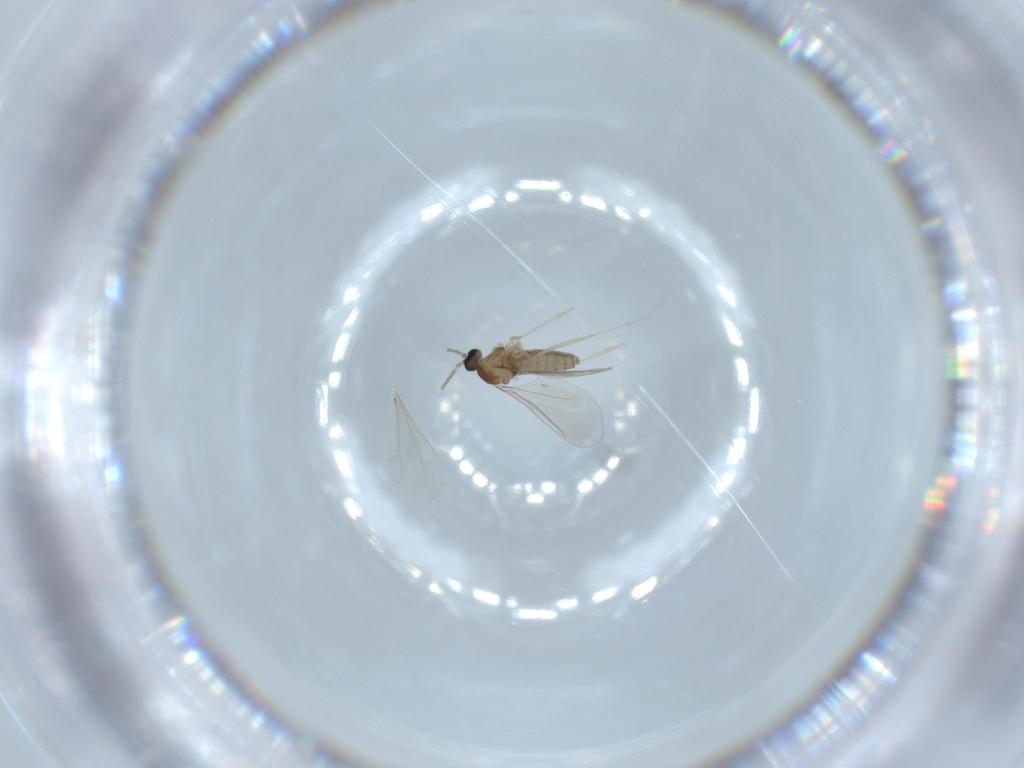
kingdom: Animalia
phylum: Arthropoda
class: Insecta
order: Diptera
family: Cecidomyiidae
